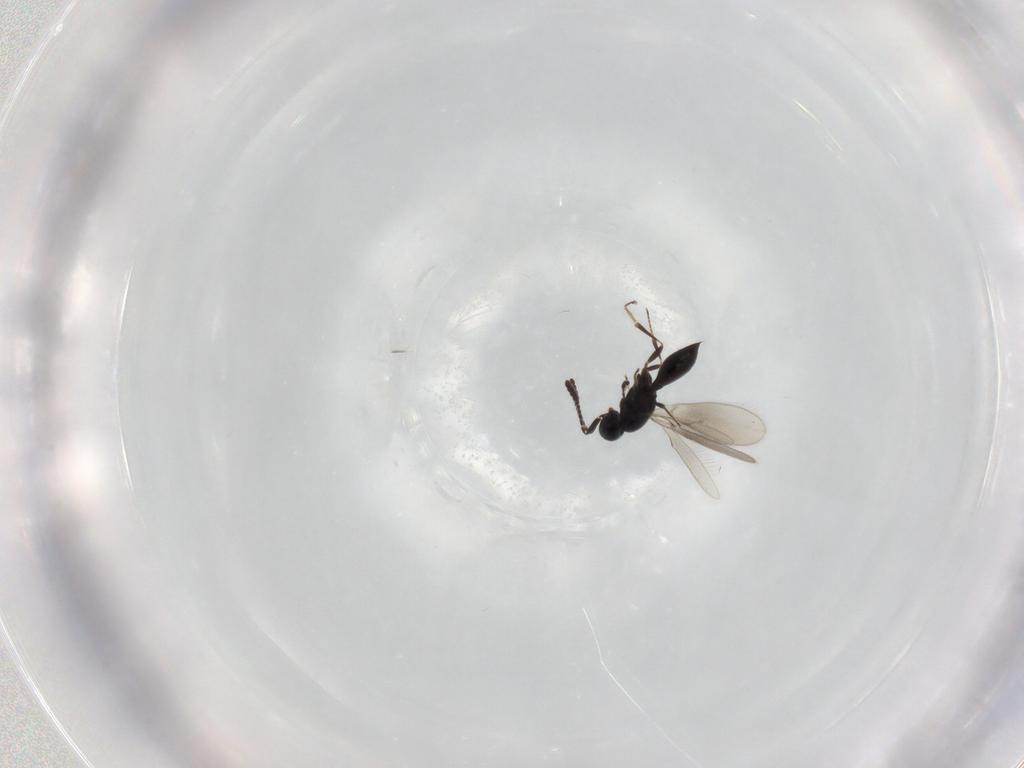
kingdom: Animalia
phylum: Arthropoda
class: Insecta
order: Hymenoptera
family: Scelionidae
